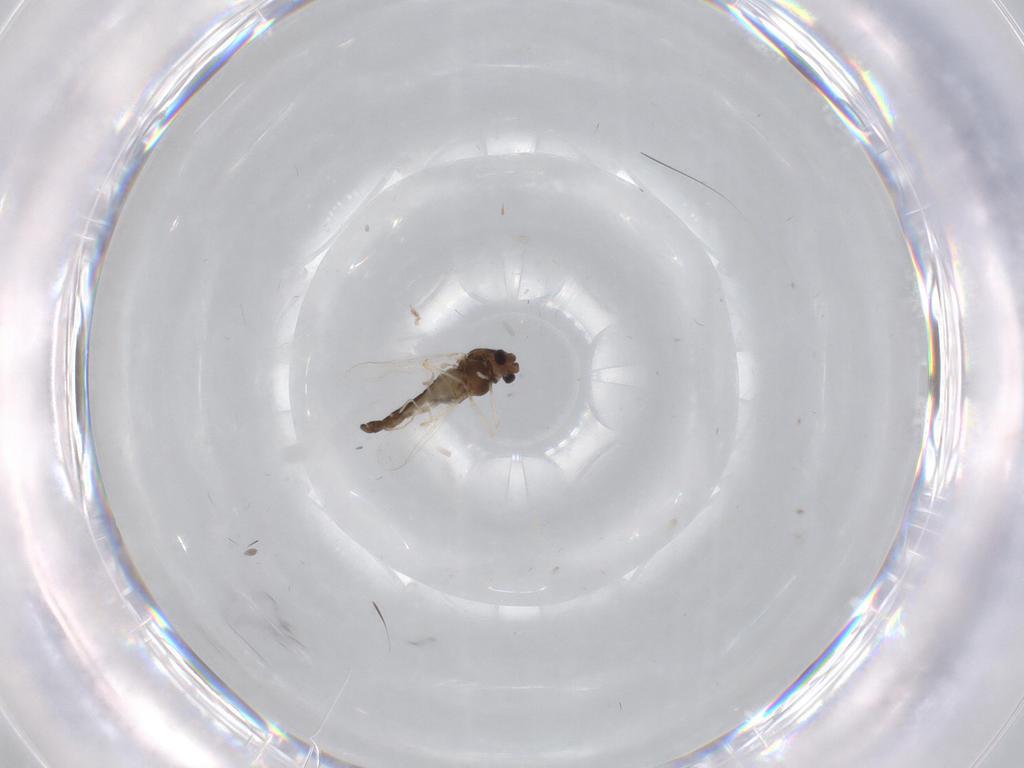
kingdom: Animalia
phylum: Arthropoda
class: Insecta
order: Diptera
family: Chironomidae
